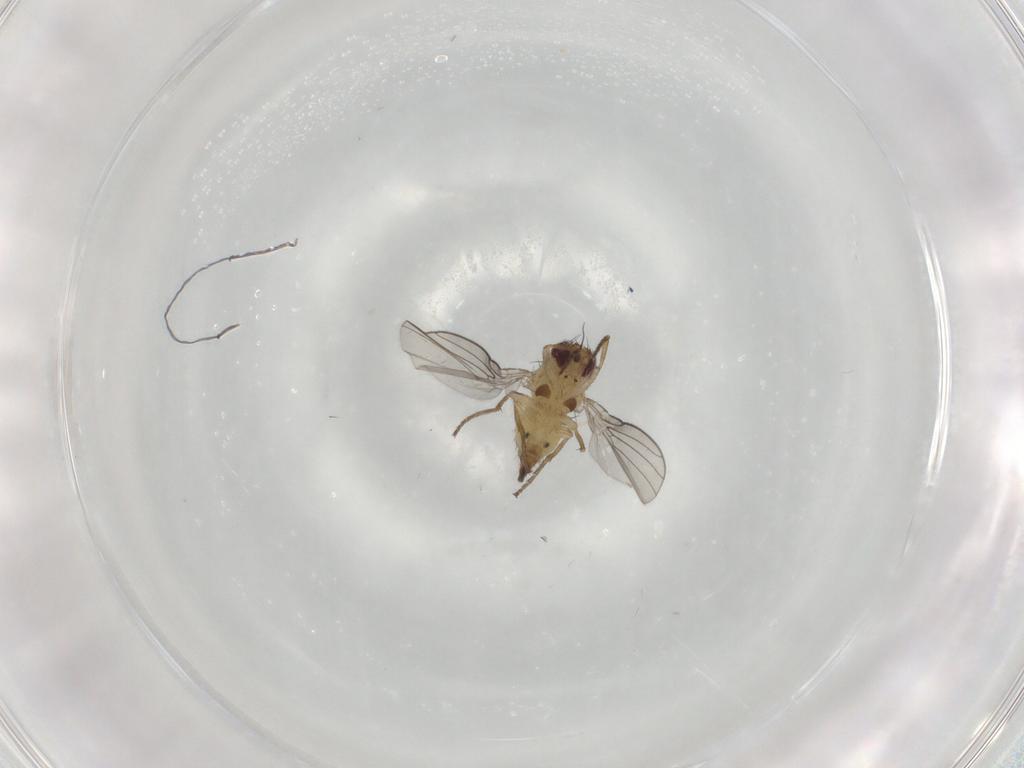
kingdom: Animalia
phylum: Arthropoda
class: Insecta
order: Diptera
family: Agromyzidae
